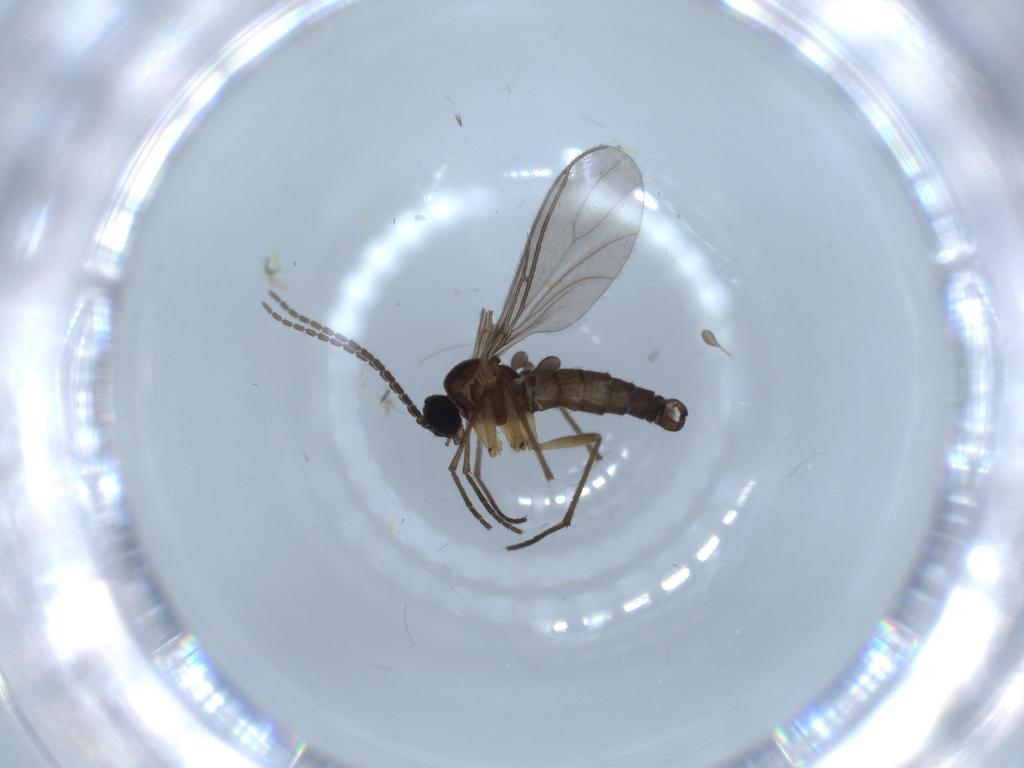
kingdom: Animalia
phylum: Arthropoda
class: Insecta
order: Diptera
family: Sciaridae
